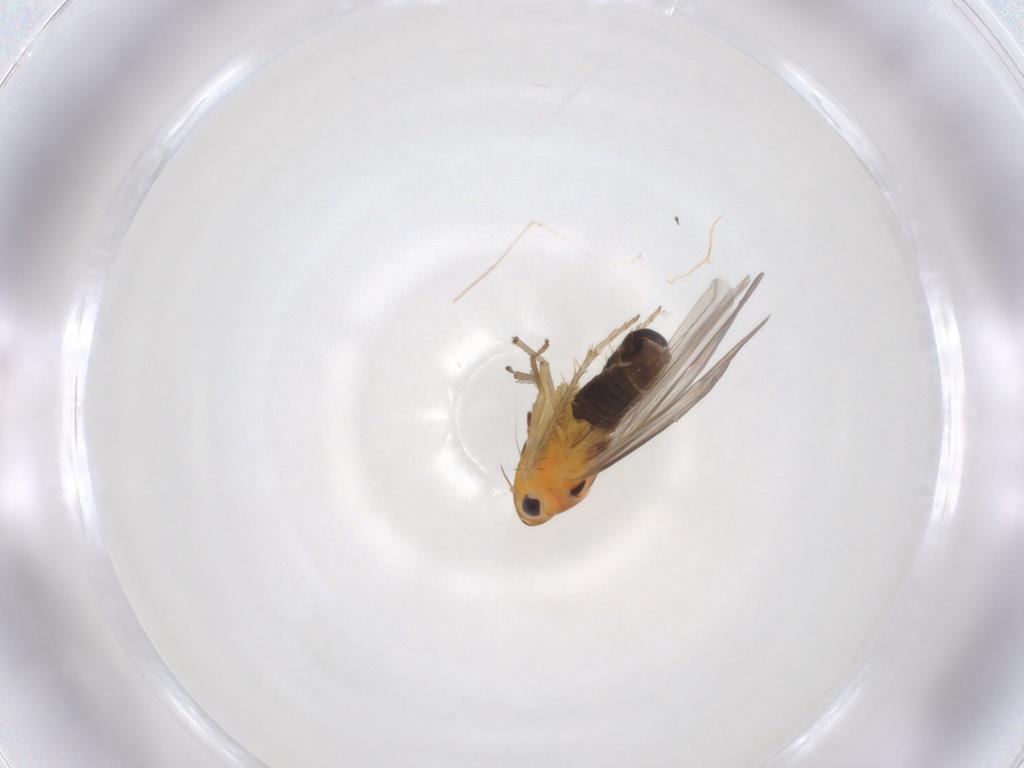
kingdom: Animalia
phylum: Arthropoda
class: Insecta
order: Hemiptera
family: Cicadellidae
